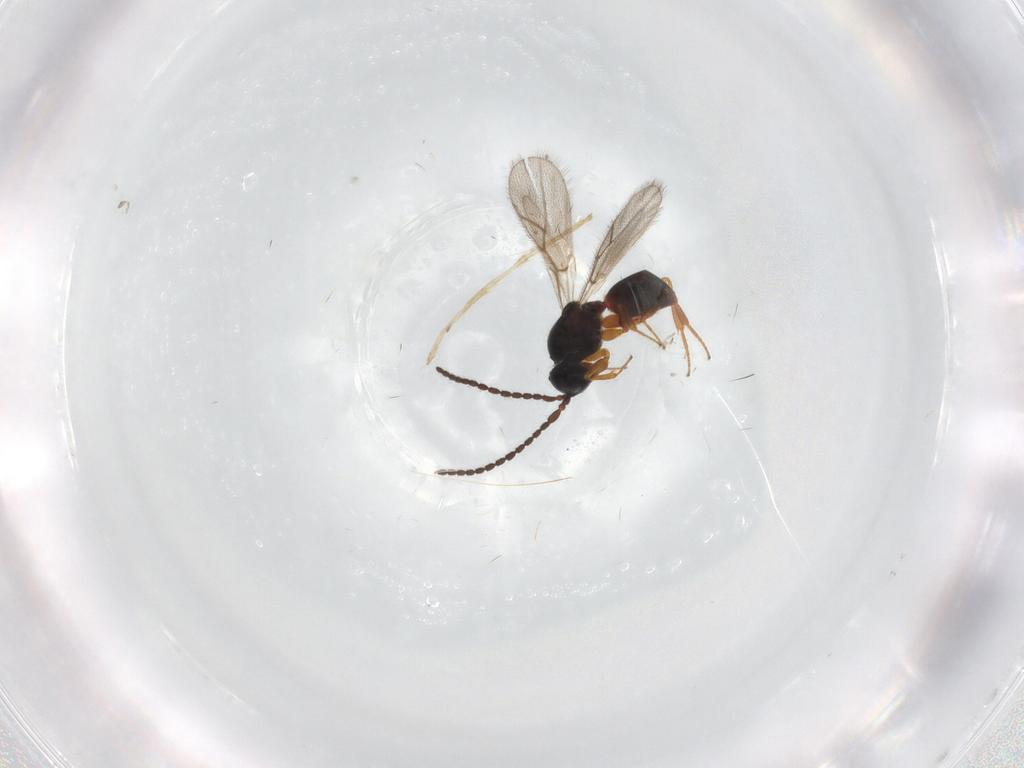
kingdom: Animalia
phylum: Arthropoda
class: Insecta
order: Hymenoptera
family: Figitidae
